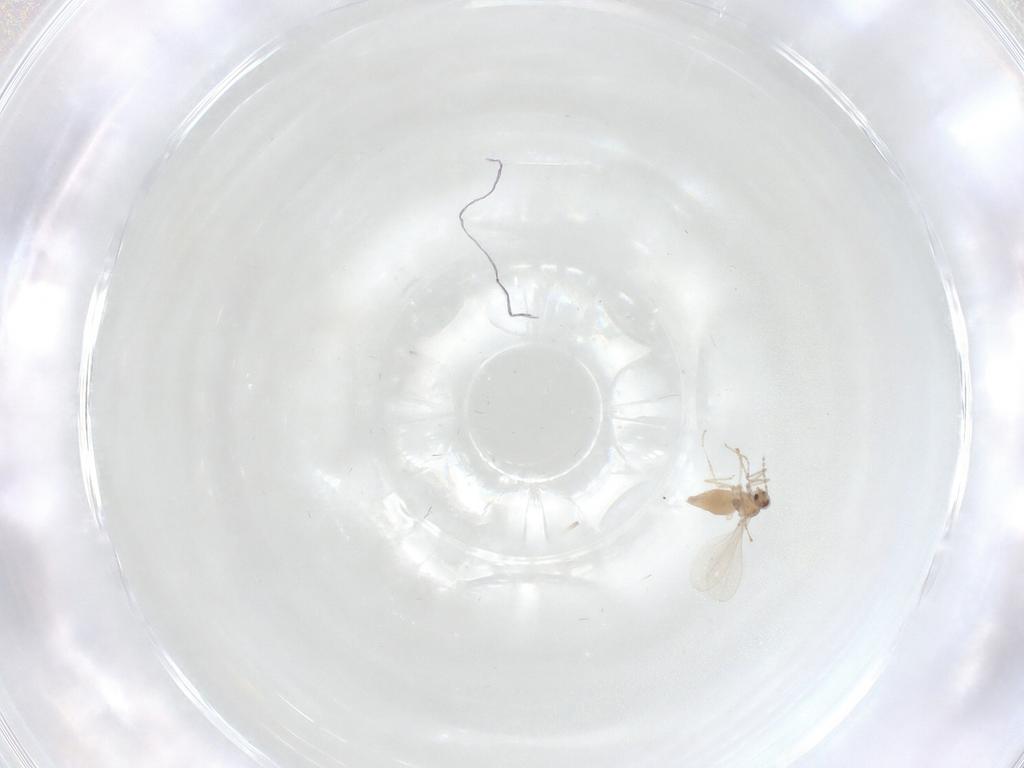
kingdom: Animalia
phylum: Arthropoda
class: Insecta
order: Diptera
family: Cecidomyiidae
